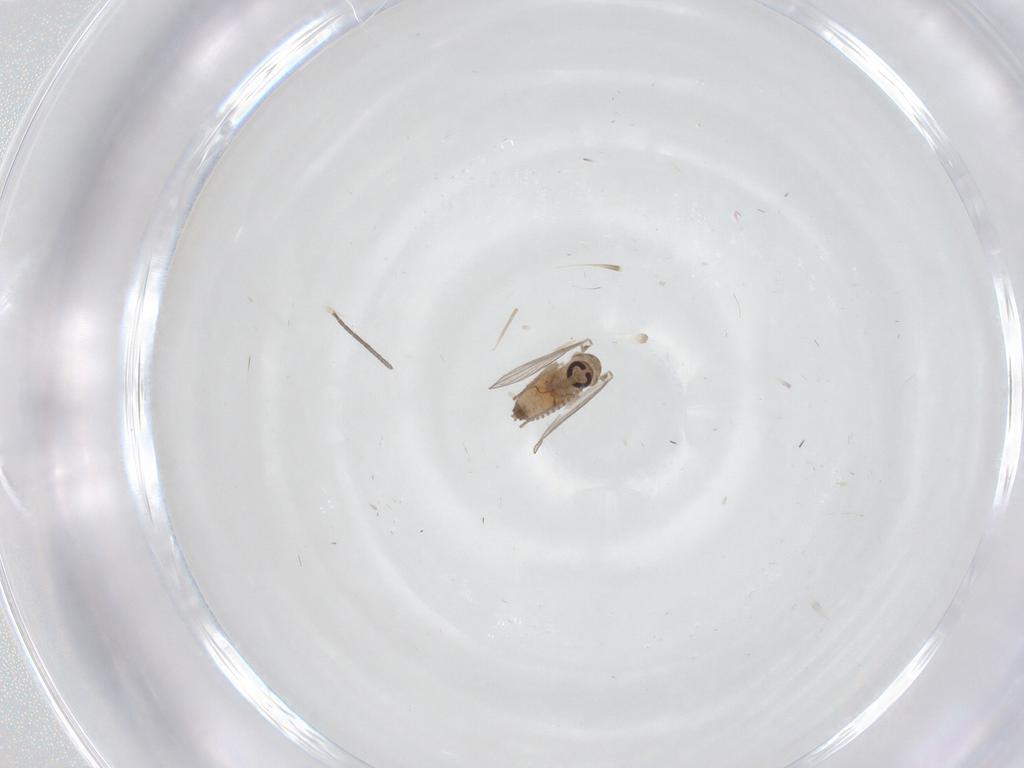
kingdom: Animalia
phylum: Arthropoda
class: Insecta
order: Diptera
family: Psychodidae
